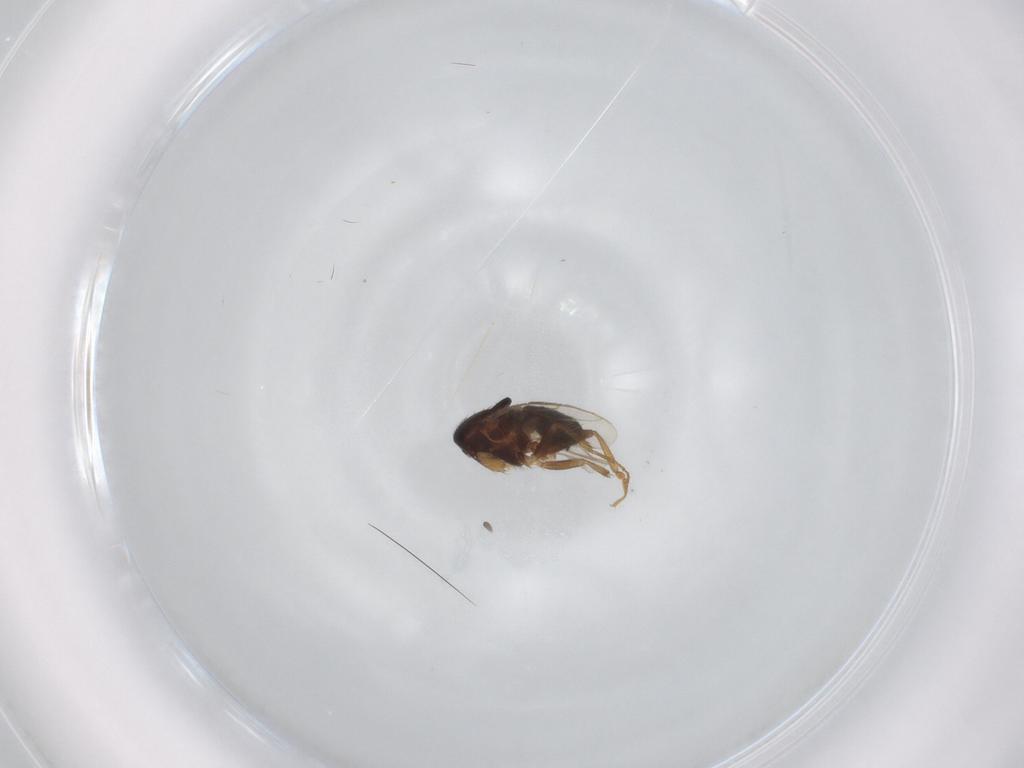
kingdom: Animalia
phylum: Arthropoda
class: Insecta
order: Diptera
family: Sphaeroceridae
